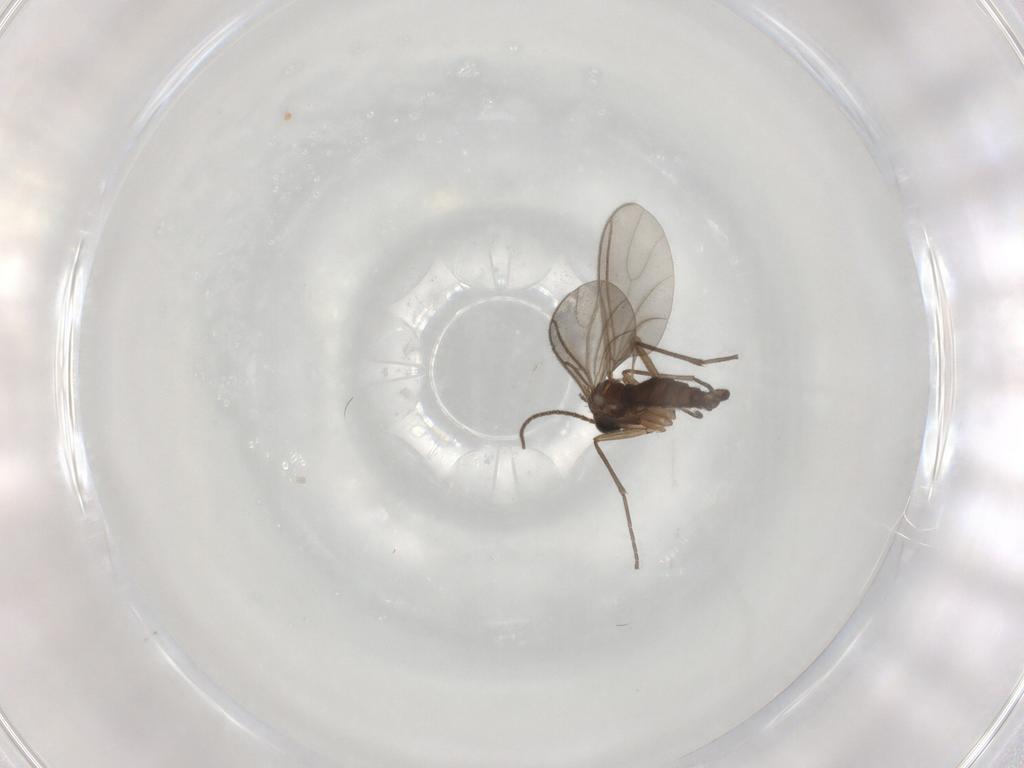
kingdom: Animalia
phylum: Arthropoda
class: Insecta
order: Diptera
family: Sciaridae
